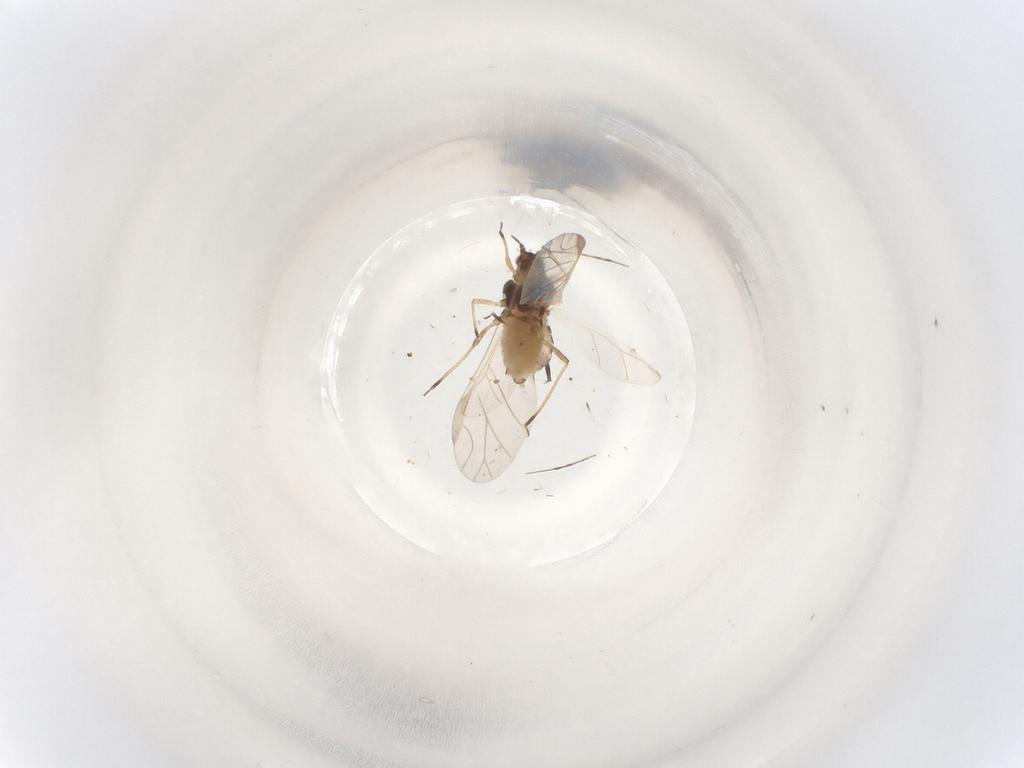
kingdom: Animalia
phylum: Arthropoda
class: Insecta
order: Hemiptera
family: Aphididae
